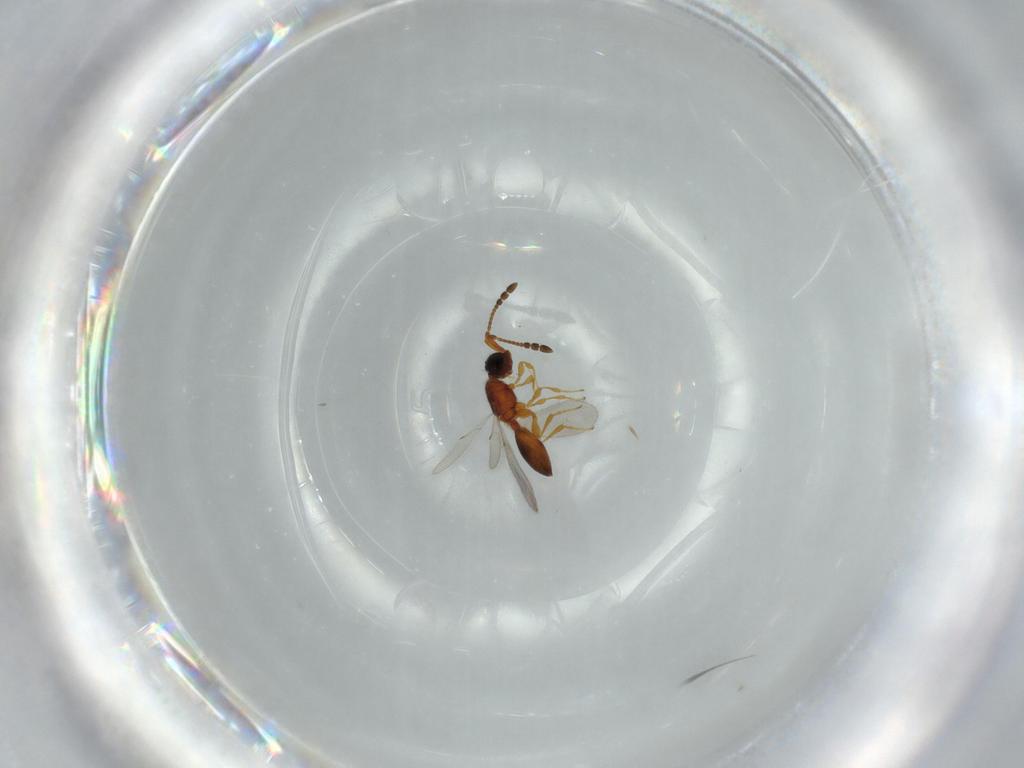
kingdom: Animalia
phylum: Arthropoda
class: Insecta
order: Hymenoptera
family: Diapriidae
